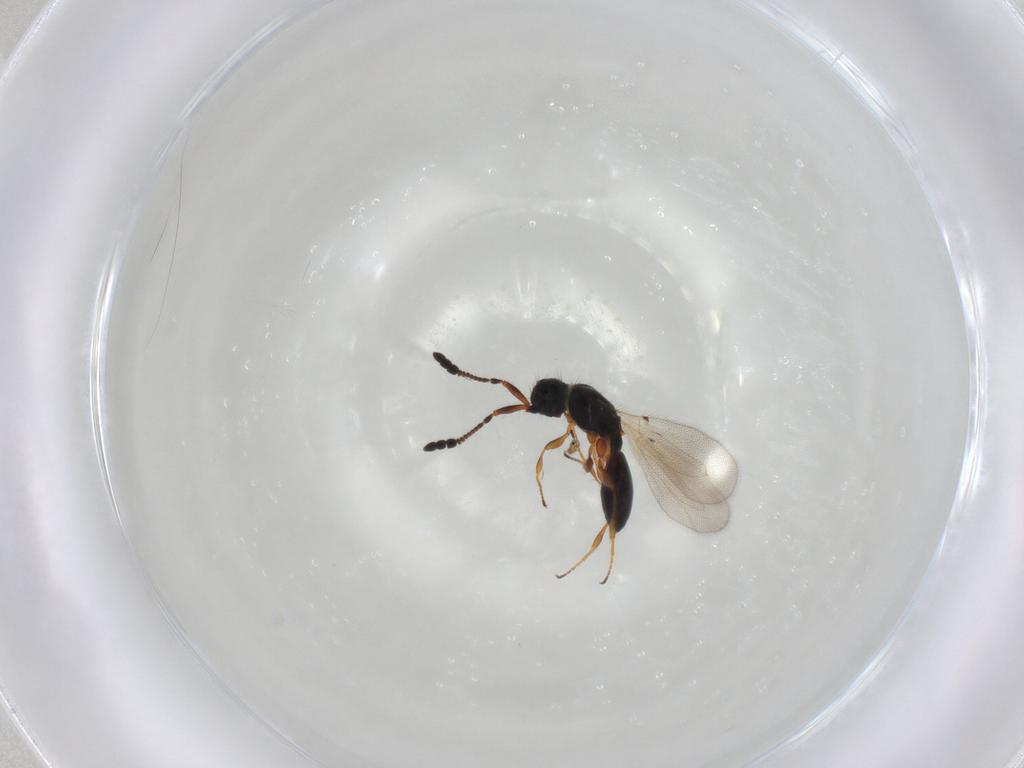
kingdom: Animalia
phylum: Arthropoda
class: Insecta
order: Hymenoptera
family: Diapriidae
